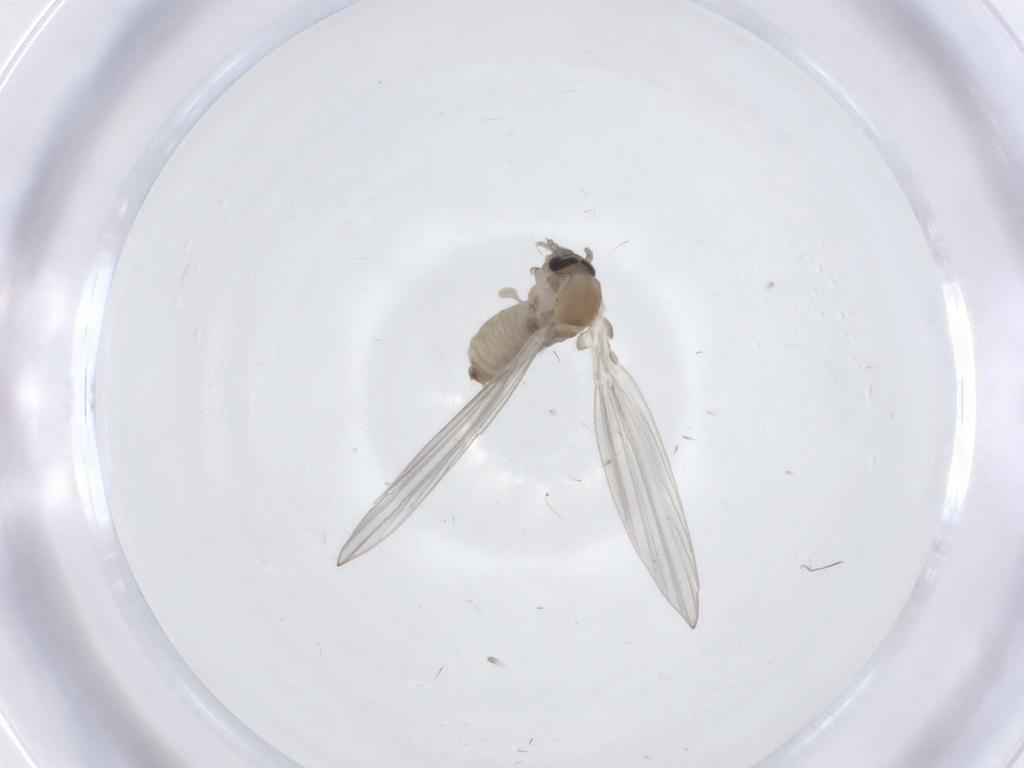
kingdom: Animalia
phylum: Arthropoda
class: Insecta
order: Diptera
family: Psychodidae
